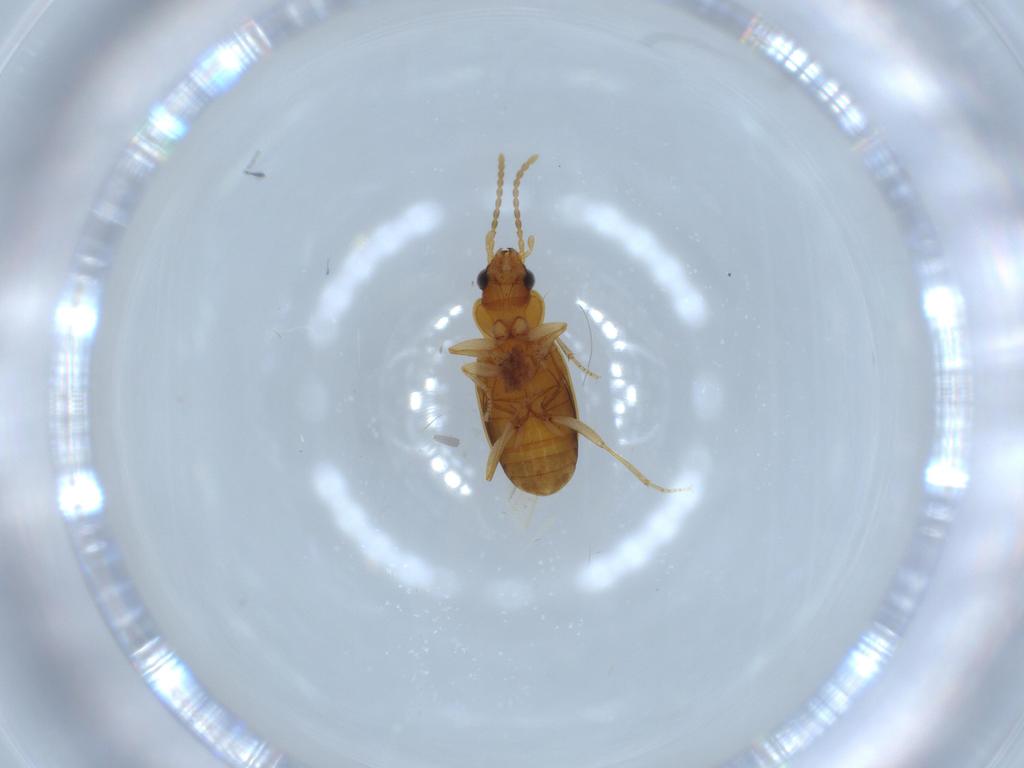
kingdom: Animalia
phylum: Arthropoda
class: Insecta
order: Coleoptera
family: Carabidae
